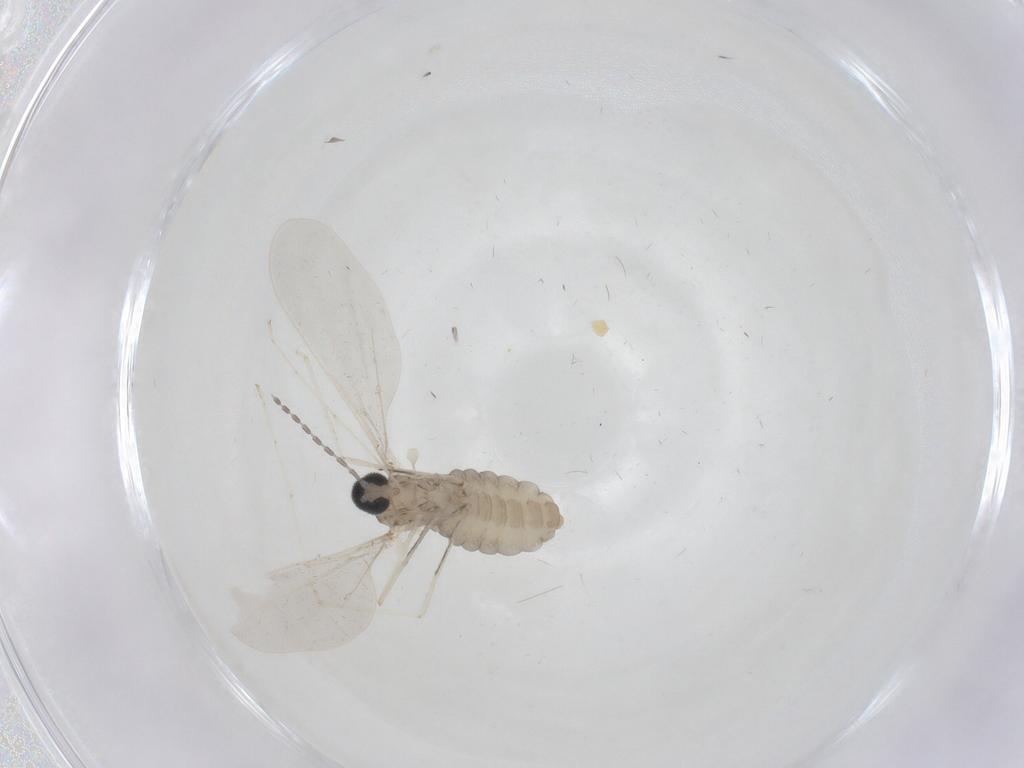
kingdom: Animalia
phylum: Arthropoda
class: Insecta
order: Diptera
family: Cecidomyiidae
